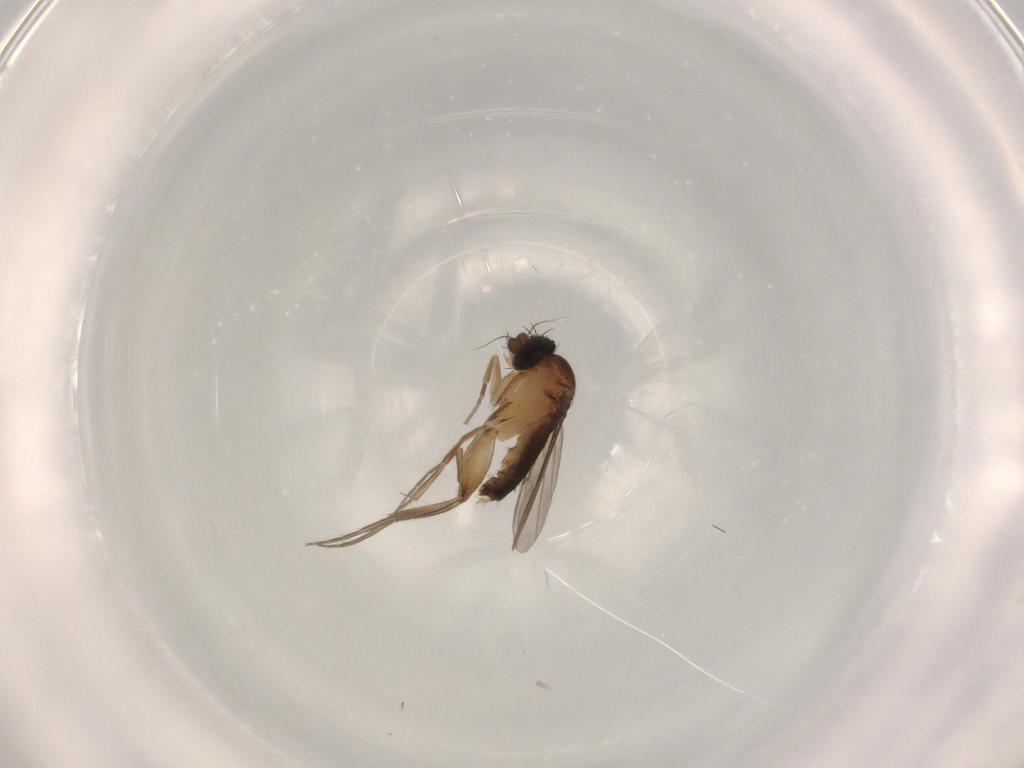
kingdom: Animalia
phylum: Arthropoda
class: Insecta
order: Diptera
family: Phoridae
